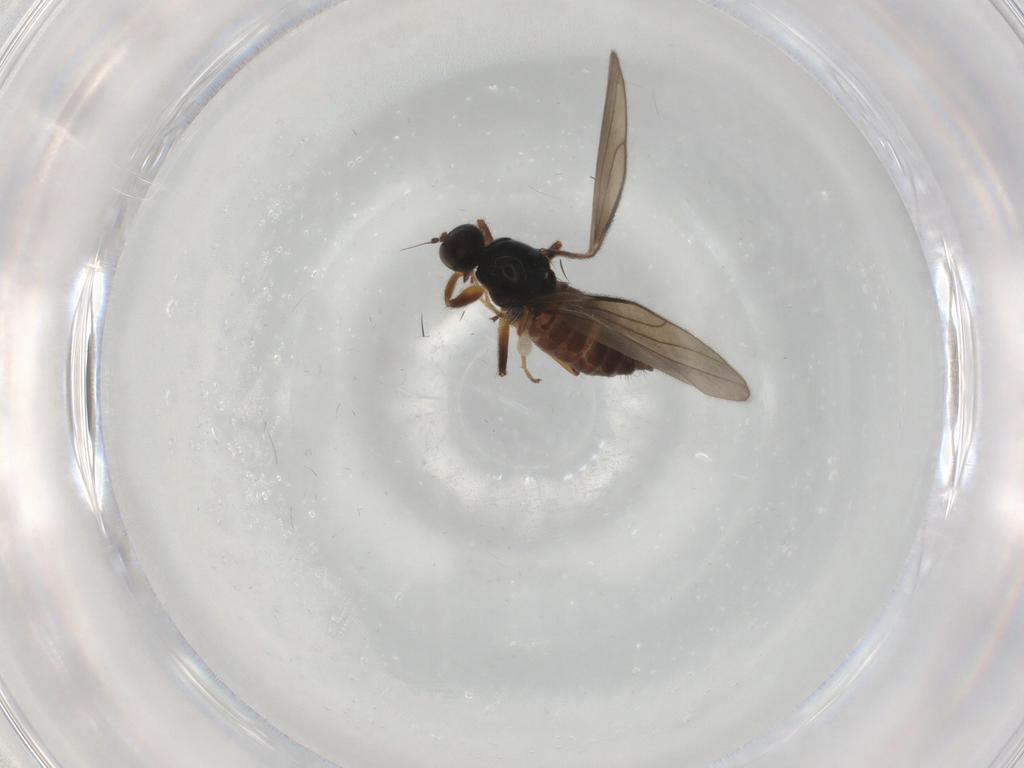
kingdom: Animalia
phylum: Arthropoda
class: Insecta
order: Diptera
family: Hybotidae
